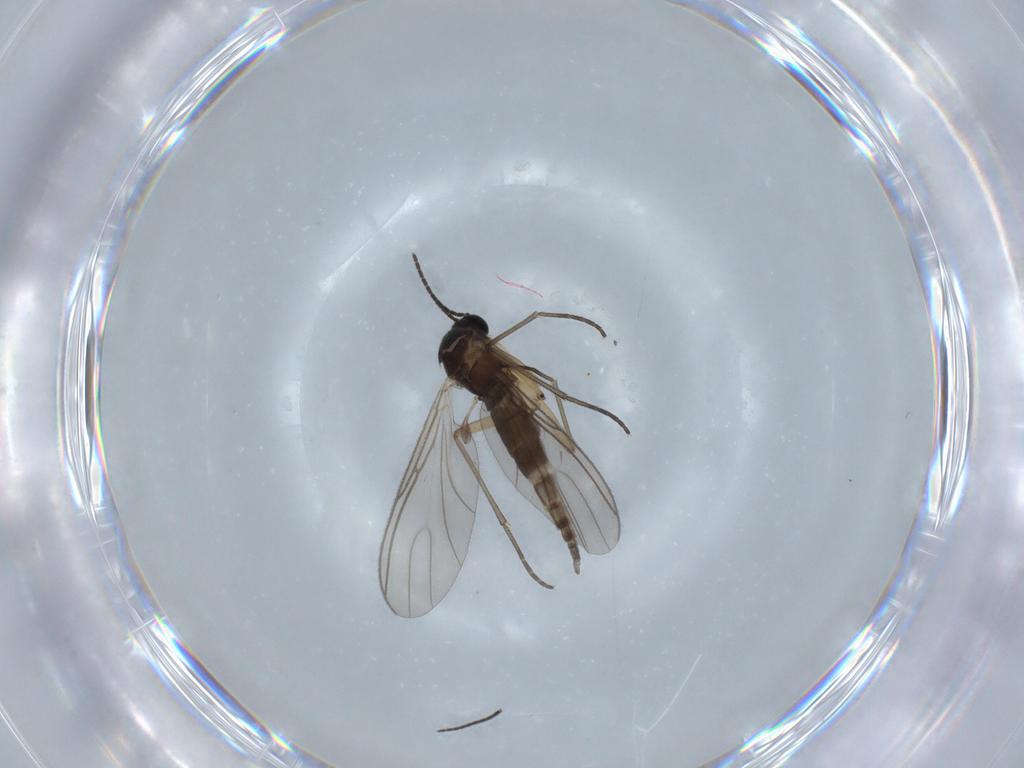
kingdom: Animalia
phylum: Arthropoda
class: Insecta
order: Diptera
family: Sciaridae
